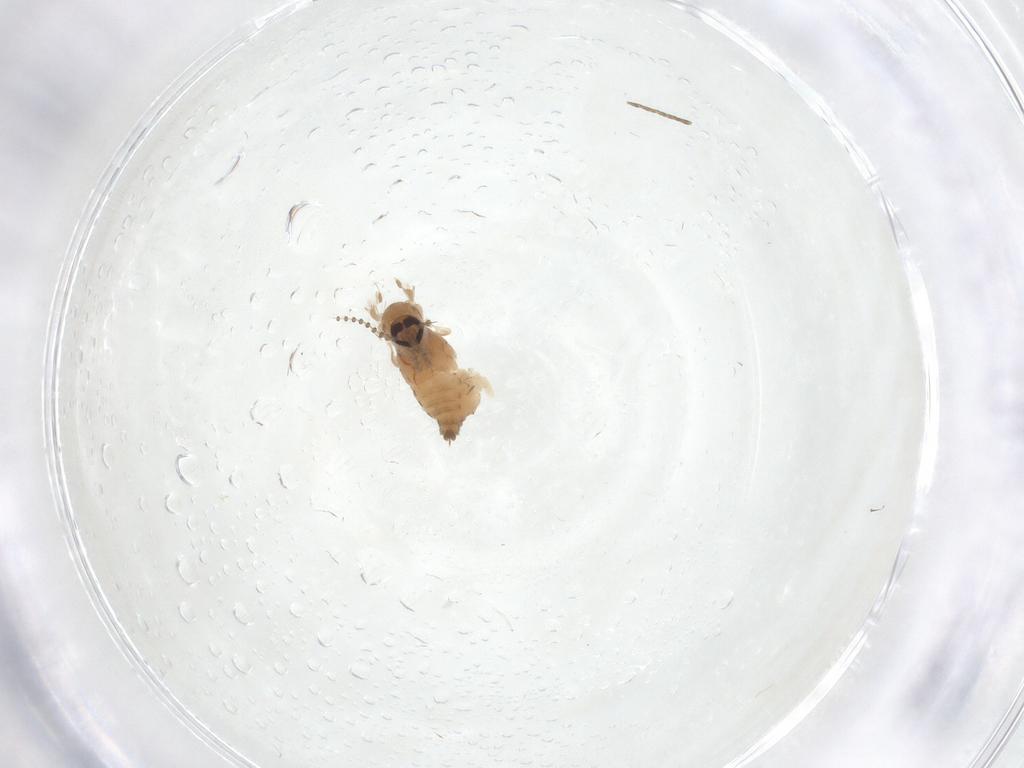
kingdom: Animalia
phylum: Arthropoda
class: Insecta
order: Diptera
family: Psychodidae
